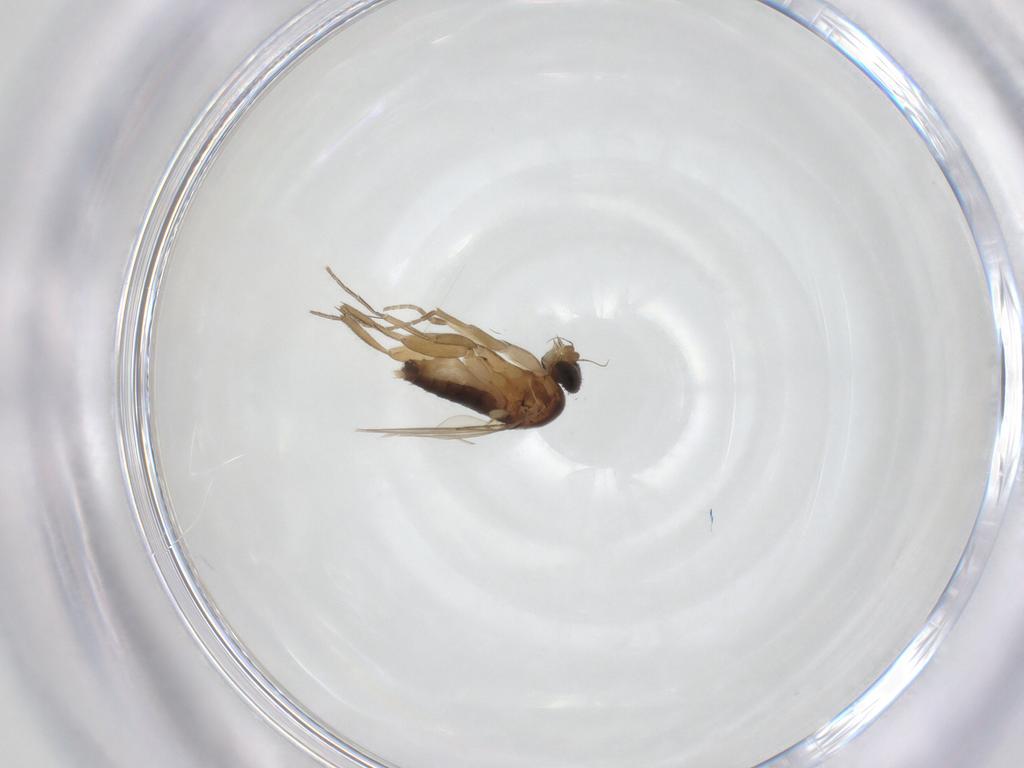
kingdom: Animalia
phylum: Arthropoda
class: Insecta
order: Diptera
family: Phoridae
